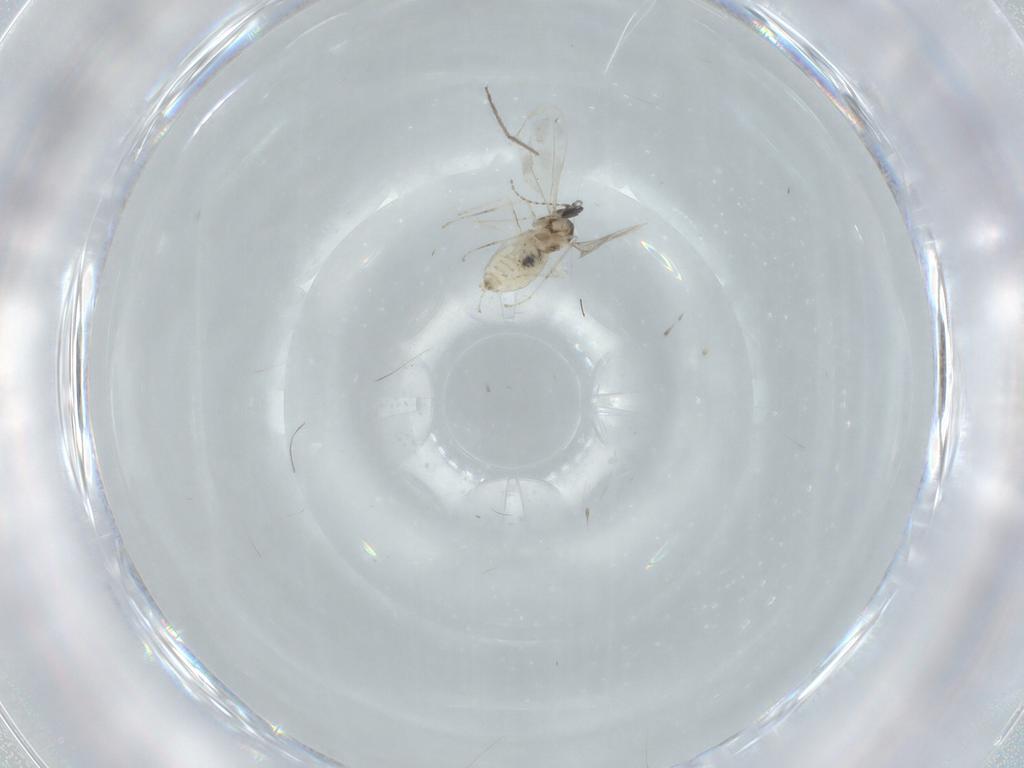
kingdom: Animalia
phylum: Arthropoda
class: Insecta
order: Diptera
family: Cecidomyiidae
